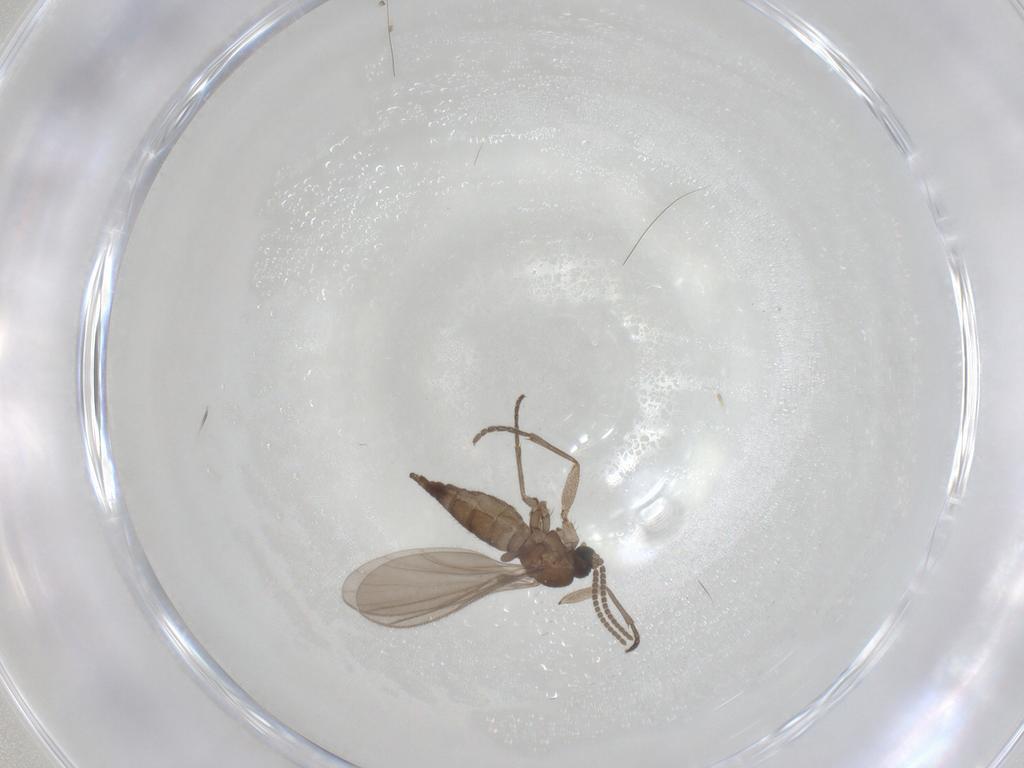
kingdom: Animalia
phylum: Arthropoda
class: Insecta
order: Diptera
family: Sciaridae
